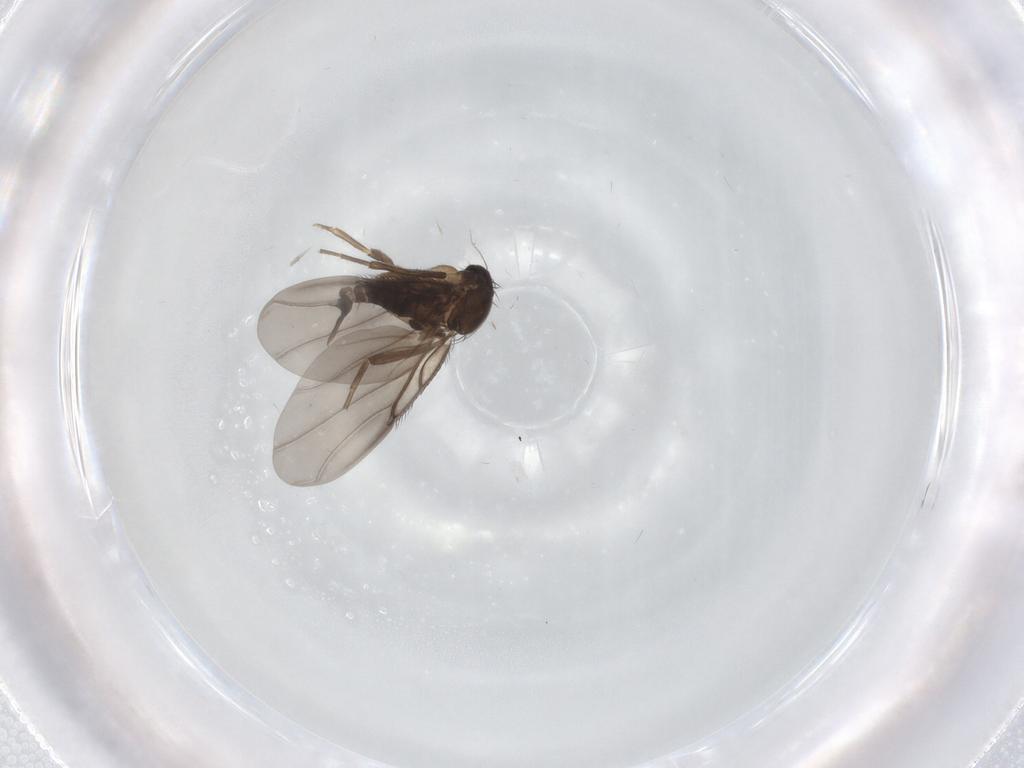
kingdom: Animalia
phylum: Arthropoda
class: Insecta
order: Diptera
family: Phoridae
